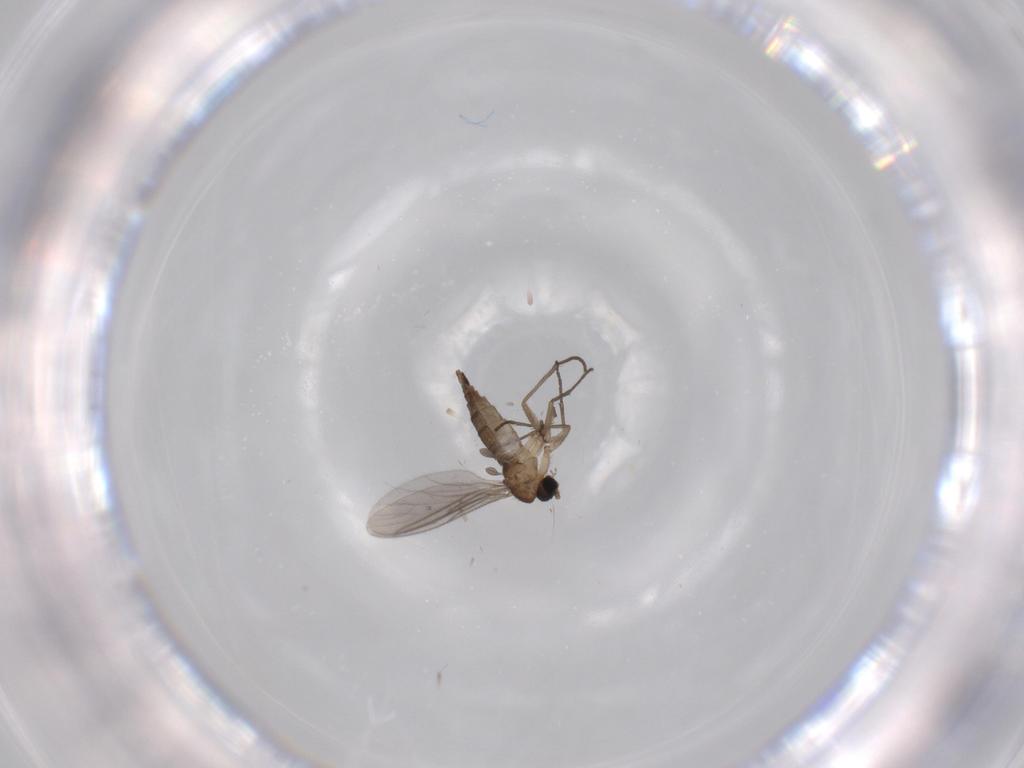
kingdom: Animalia
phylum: Arthropoda
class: Insecta
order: Diptera
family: Sciaridae
